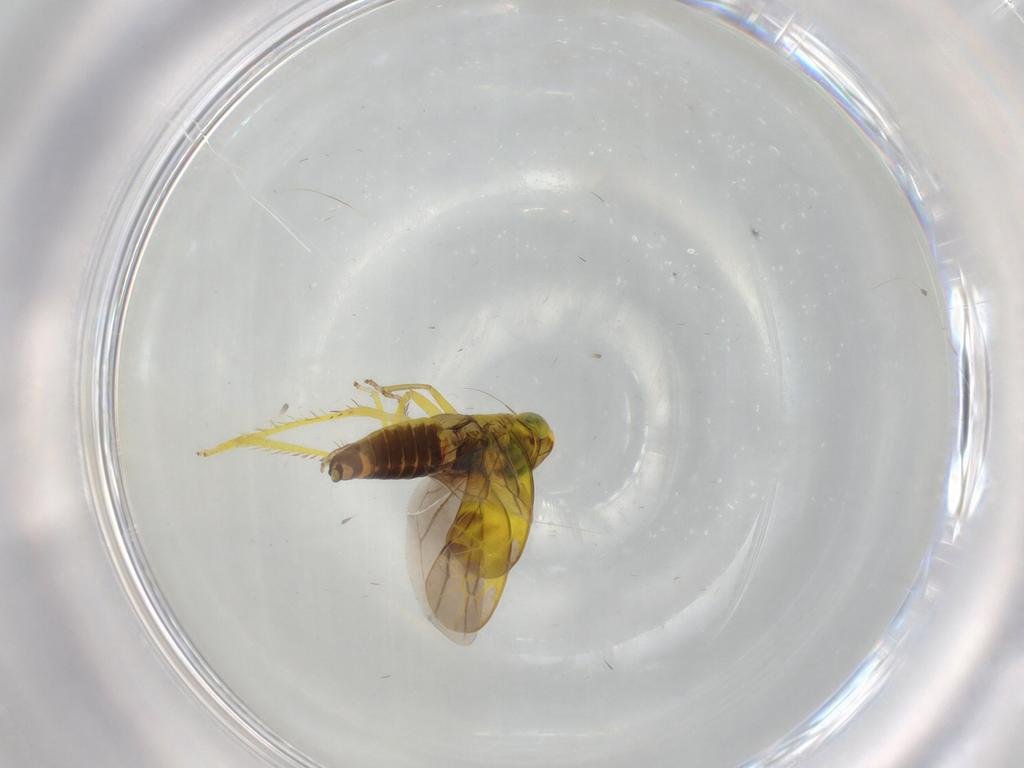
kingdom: Animalia
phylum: Arthropoda
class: Insecta
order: Hemiptera
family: Cicadellidae
